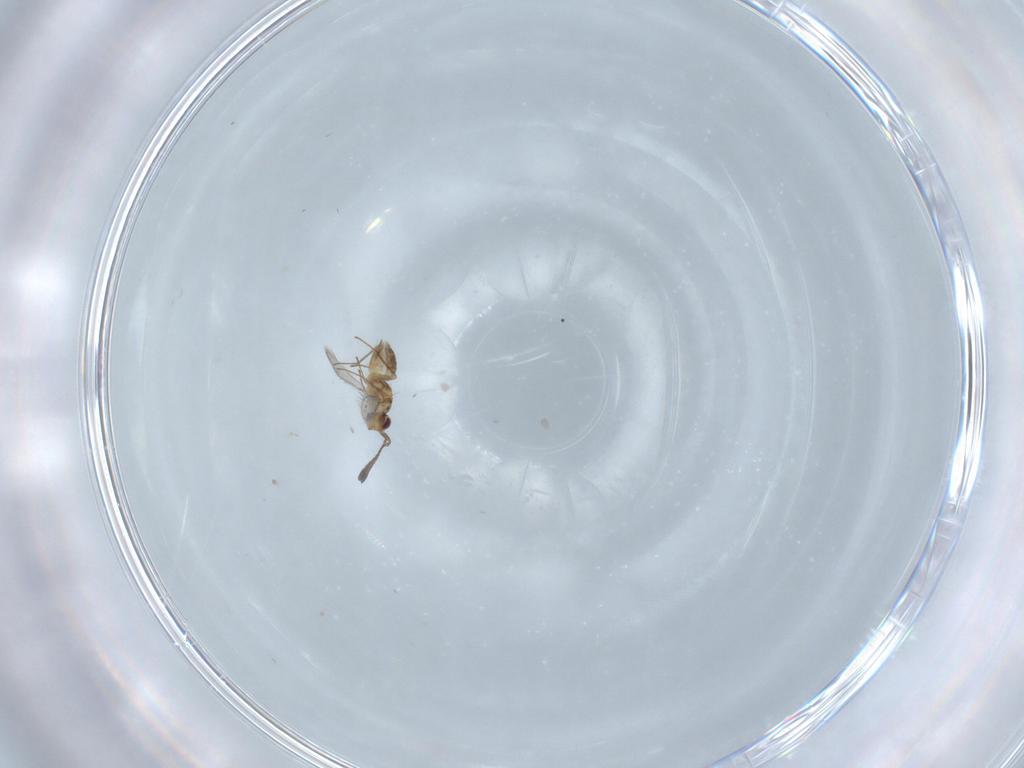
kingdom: Animalia
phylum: Arthropoda
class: Insecta
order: Hymenoptera
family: Mymaridae
